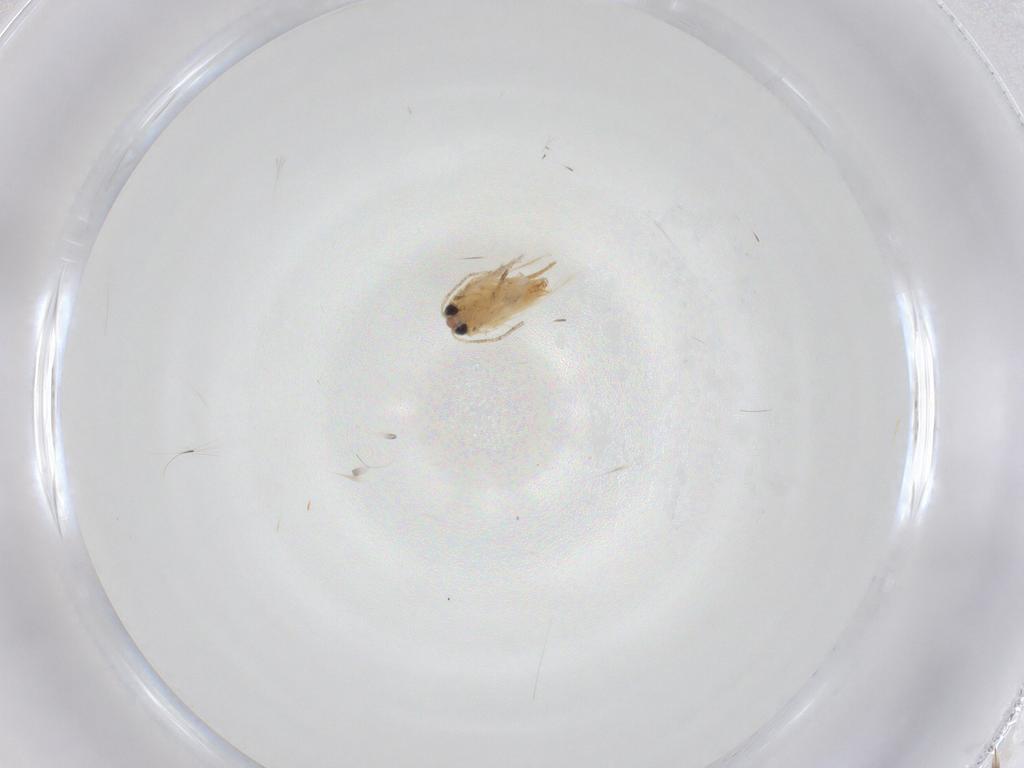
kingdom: Animalia
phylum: Arthropoda
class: Insecta
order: Lepidoptera
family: Crambidae
